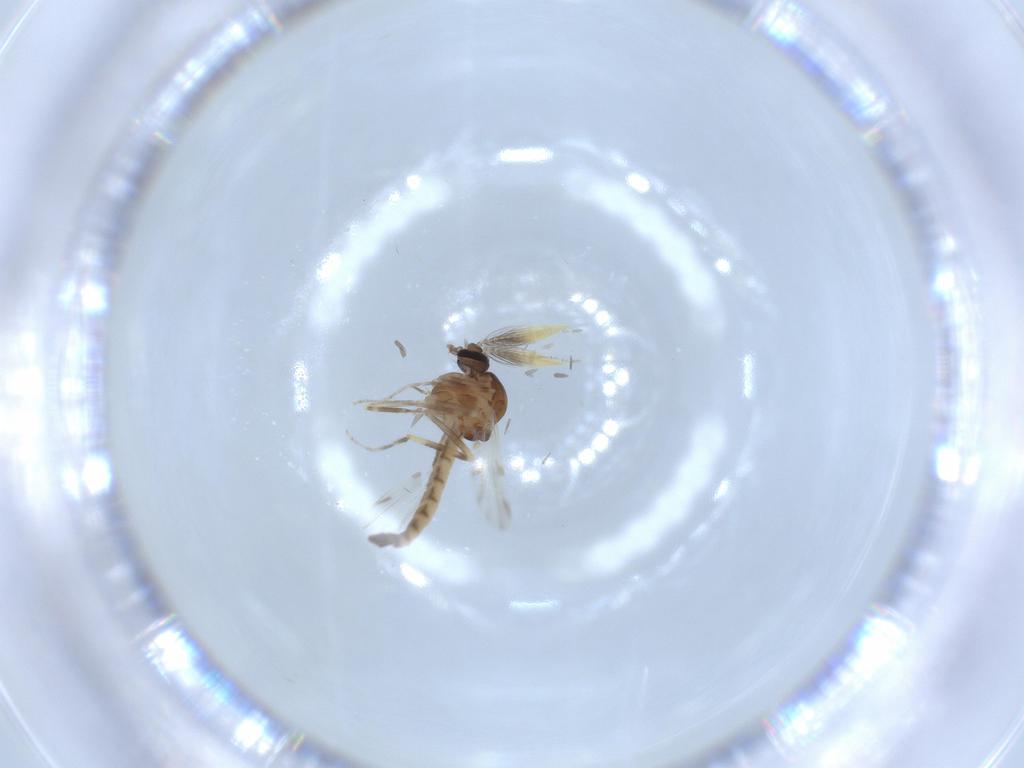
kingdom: Animalia
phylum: Arthropoda
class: Insecta
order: Diptera
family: Ceratopogonidae
